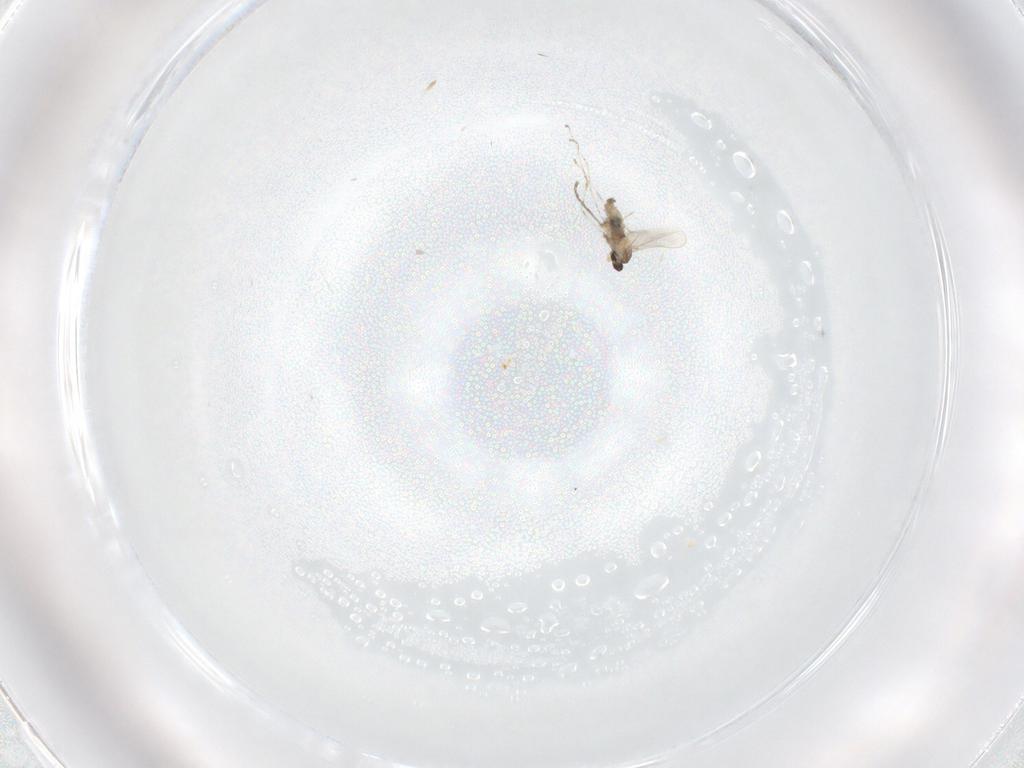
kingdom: Animalia
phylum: Arthropoda
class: Insecta
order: Diptera
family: Cecidomyiidae
